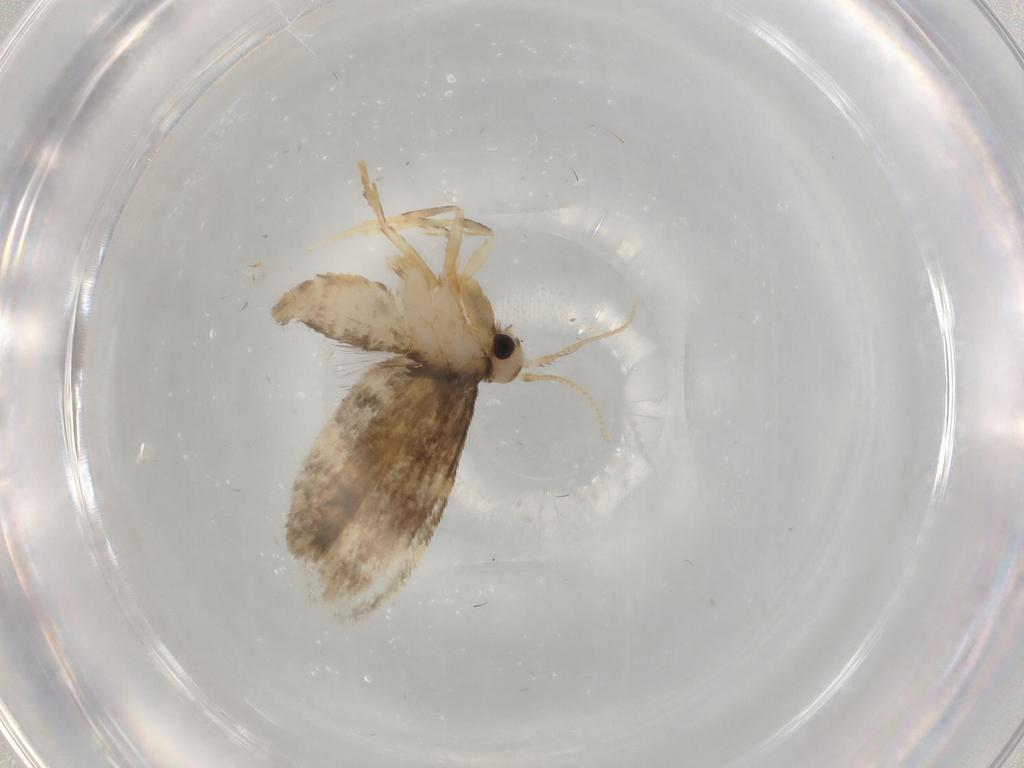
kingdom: Animalia
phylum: Arthropoda
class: Insecta
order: Lepidoptera
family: Psychidae
